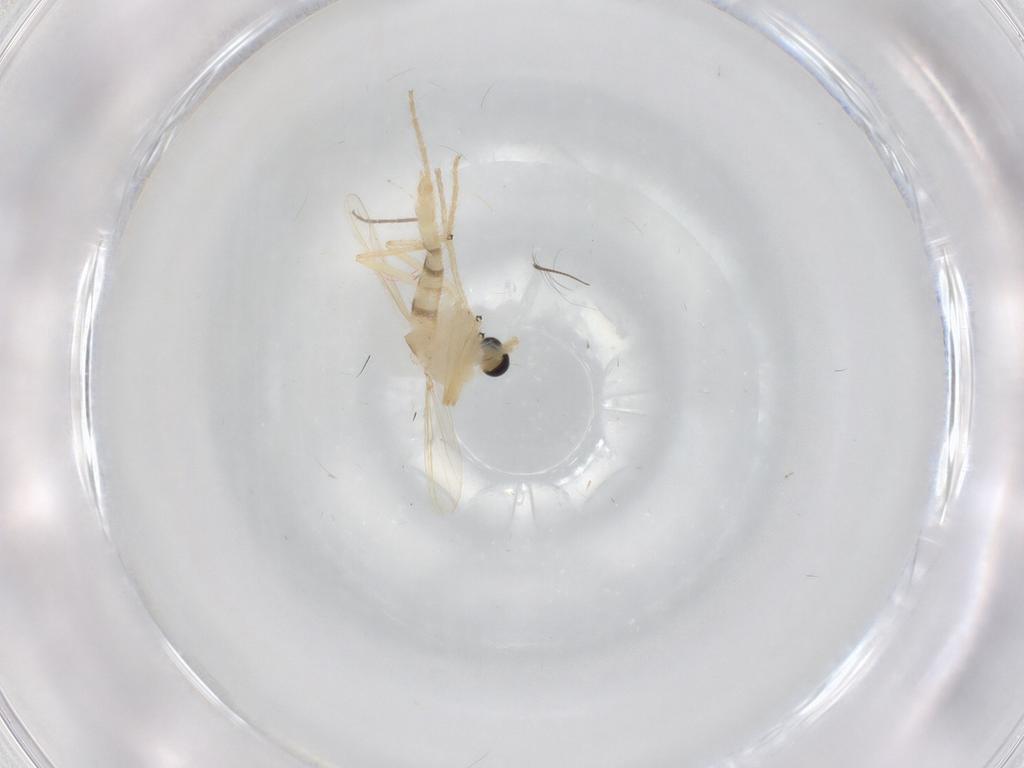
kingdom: Animalia
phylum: Arthropoda
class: Insecta
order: Diptera
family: Chironomidae
